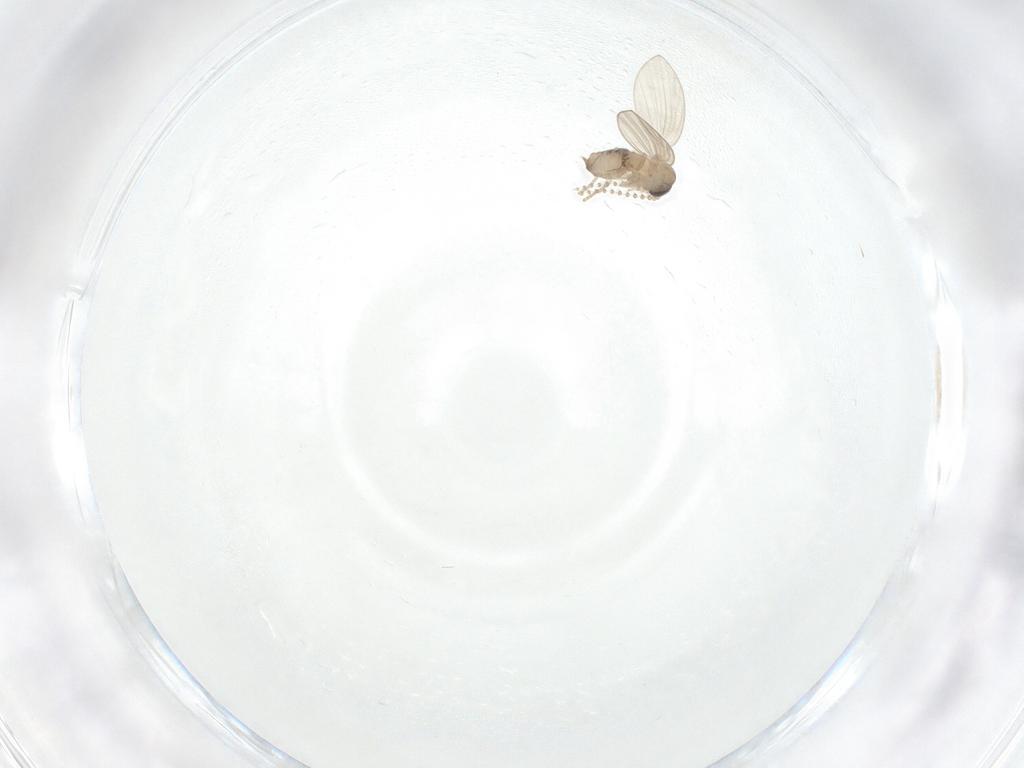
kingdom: Animalia
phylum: Arthropoda
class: Insecta
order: Diptera
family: Psychodidae
